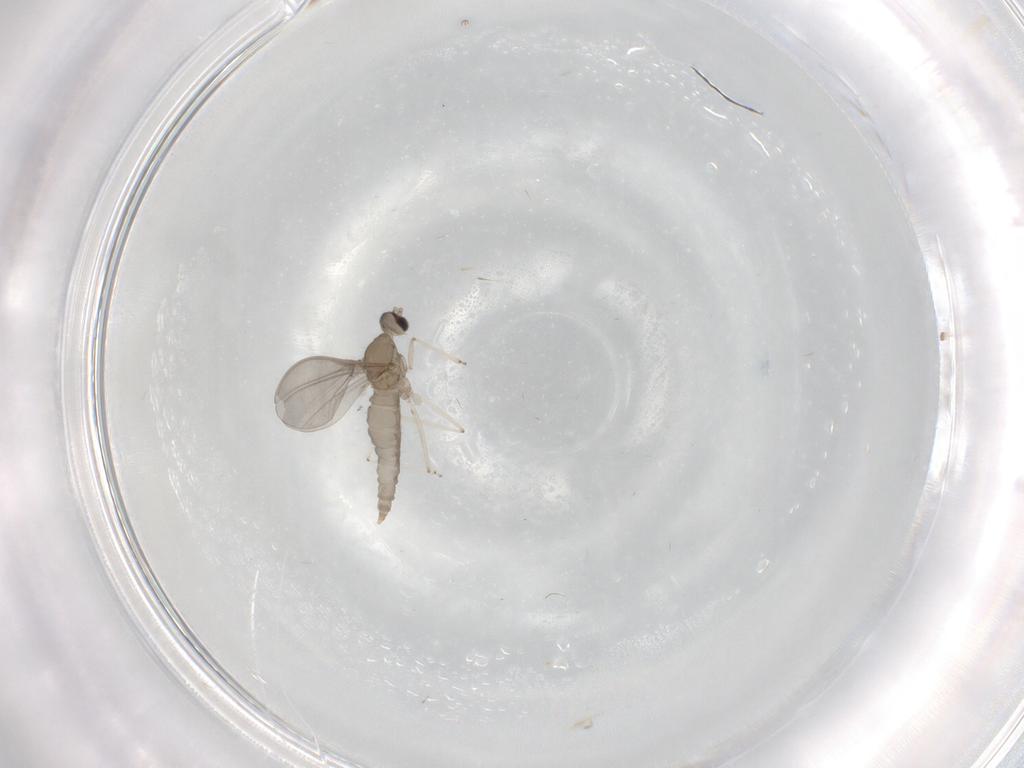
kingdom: Animalia
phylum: Arthropoda
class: Insecta
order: Diptera
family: Cecidomyiidae
